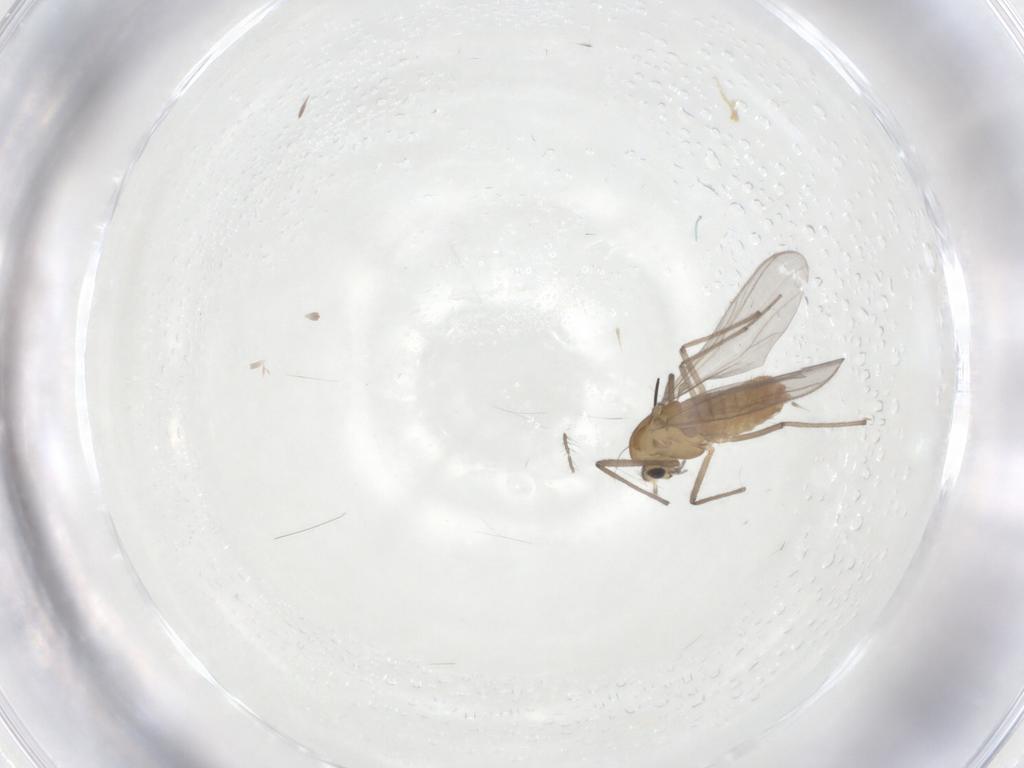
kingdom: Animalia
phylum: Arthropoda
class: Insecta
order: Diptera
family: Chironomidae
